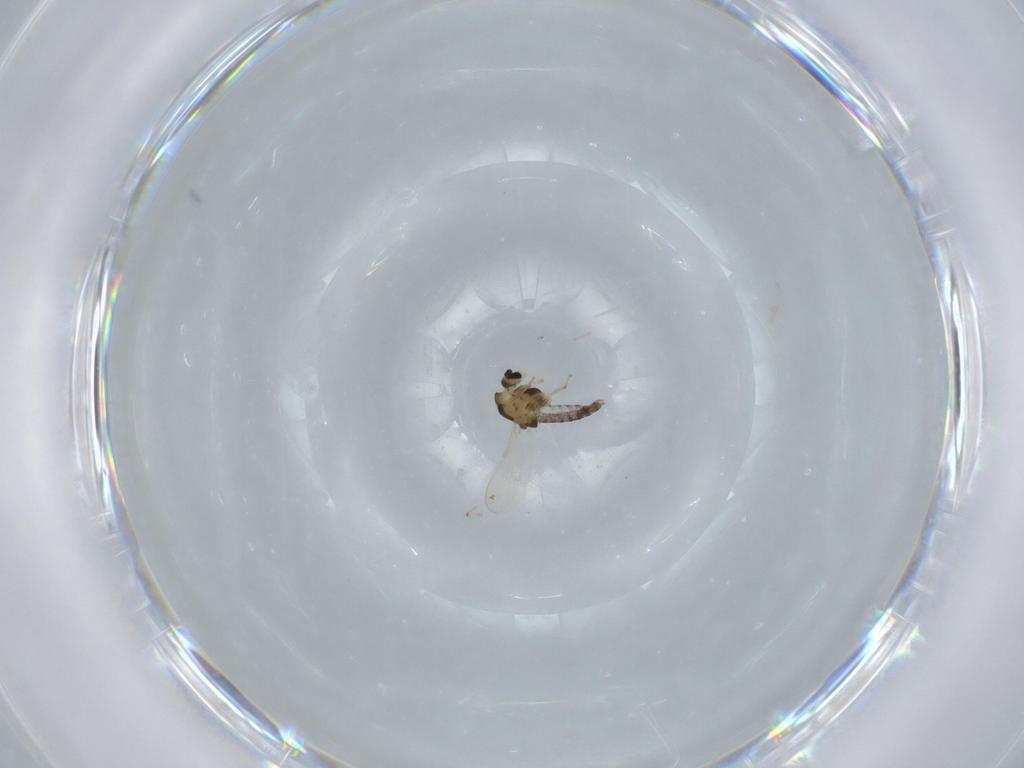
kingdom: Animalia
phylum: Arthropoda
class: Insecta
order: Diptera
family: Chironomidae
